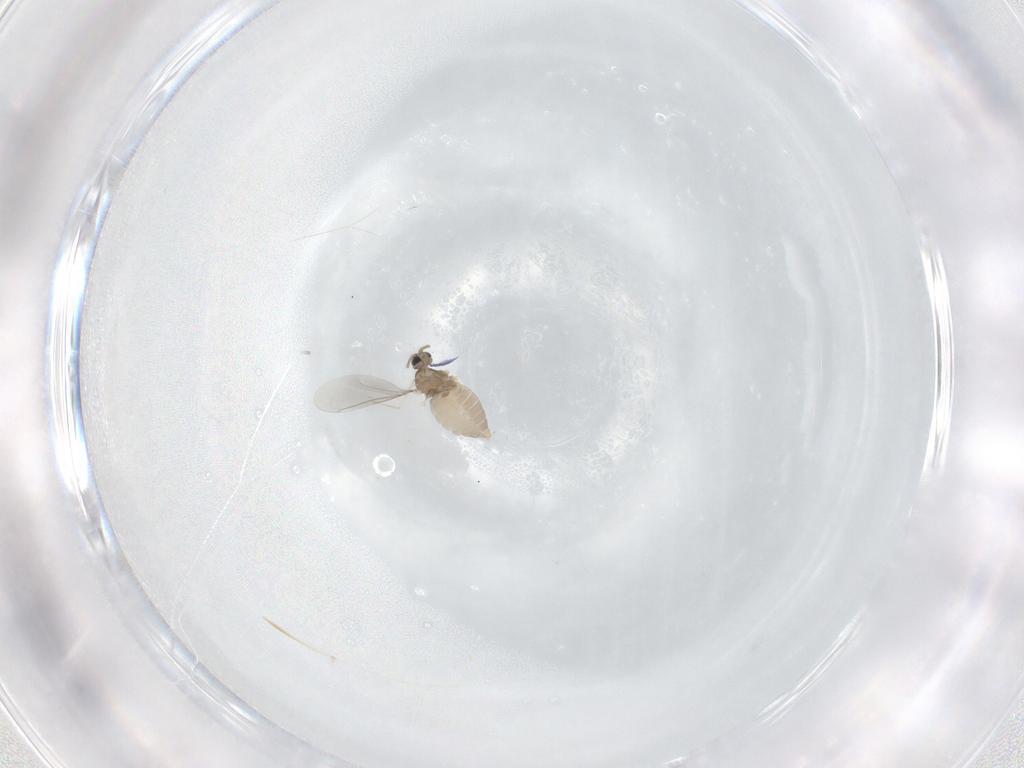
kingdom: Animalia
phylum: Arthropoda
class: Insecta
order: Diptera
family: Cecidomyiidae
